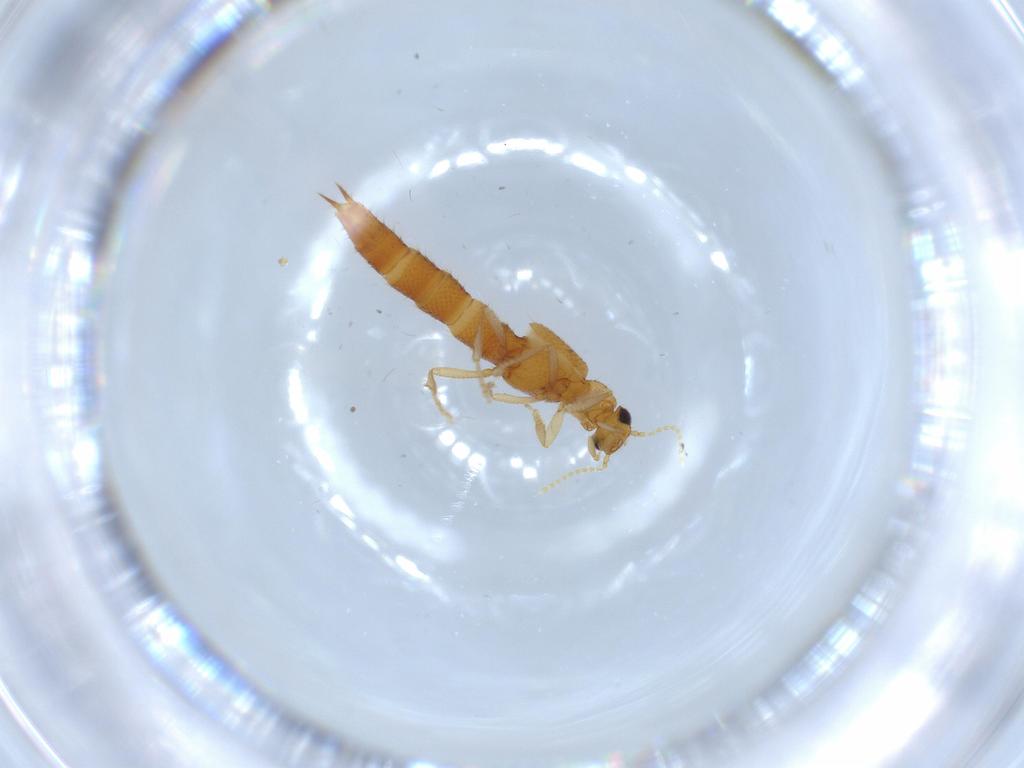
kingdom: Animalia
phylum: Arthropoda
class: Insecta
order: Coleoptera
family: Staphylinidae
